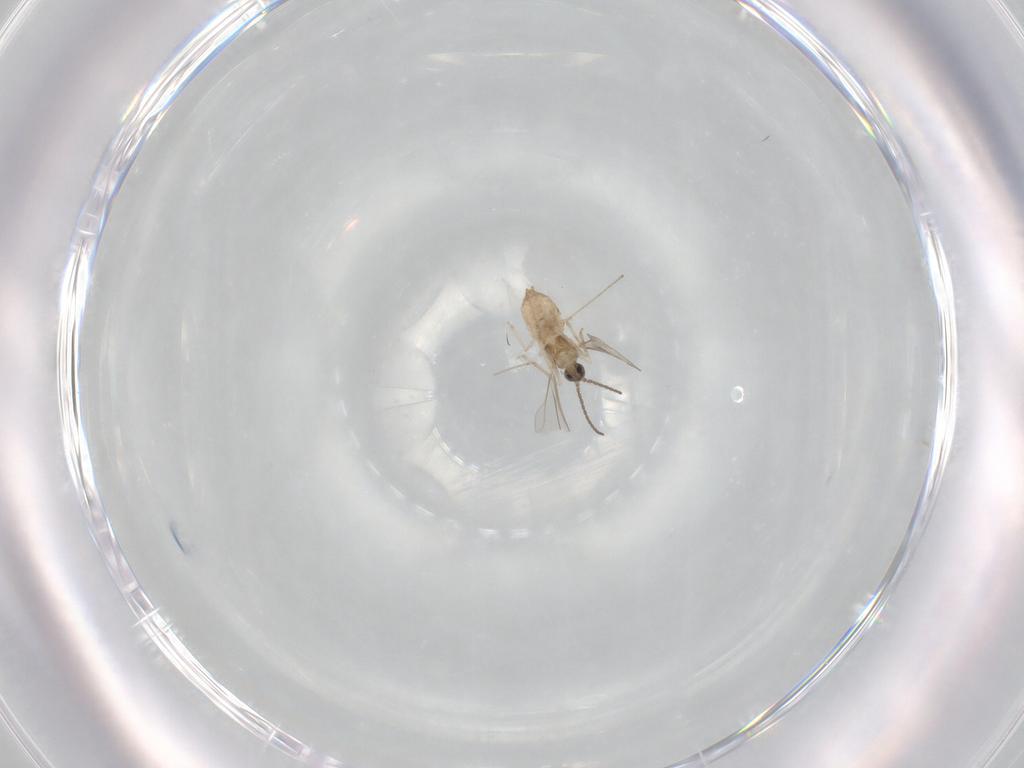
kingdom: Animalia
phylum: Arthropoda
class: Insecta
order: Diptera
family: Cecidomyiidae
